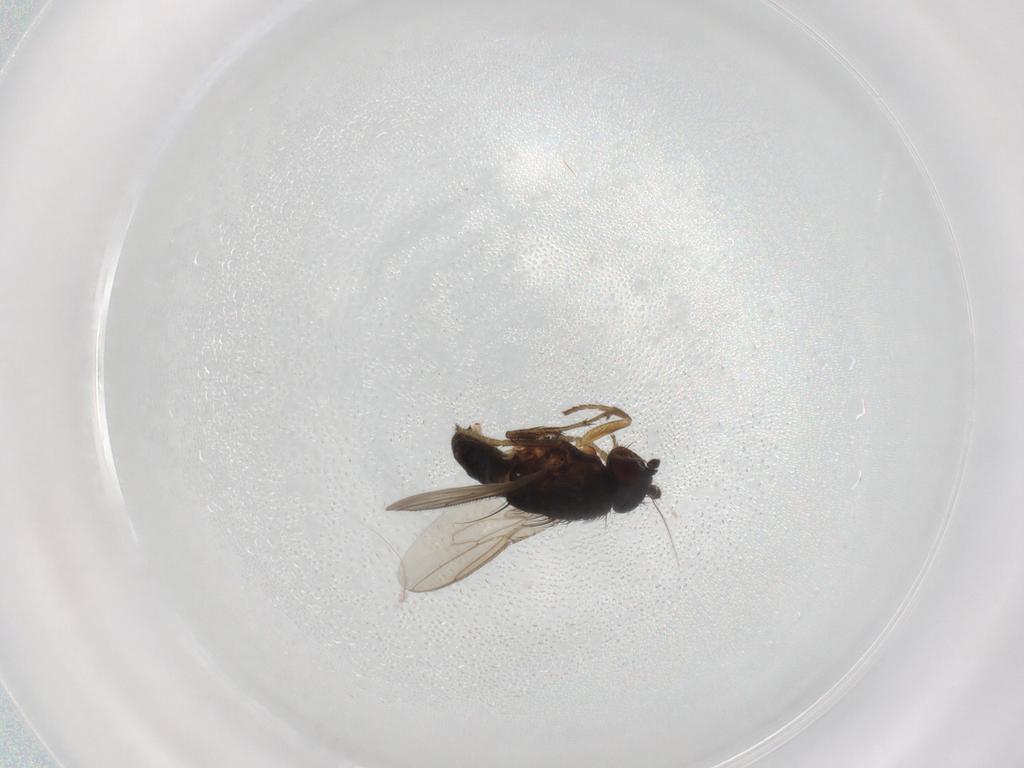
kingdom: Animalia
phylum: Arthropoda
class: Insecta
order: Diptera
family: Sphaeroceridae
